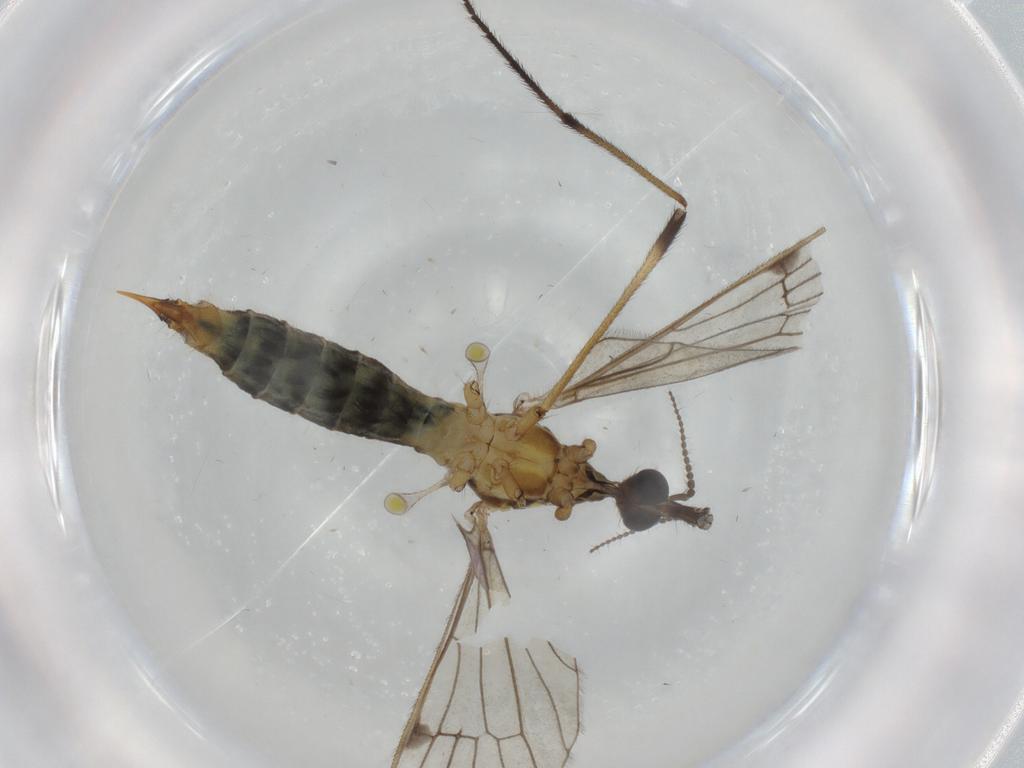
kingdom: Animalia
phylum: Arthropoda
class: Insecta
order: Diptera
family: Limoniidae
